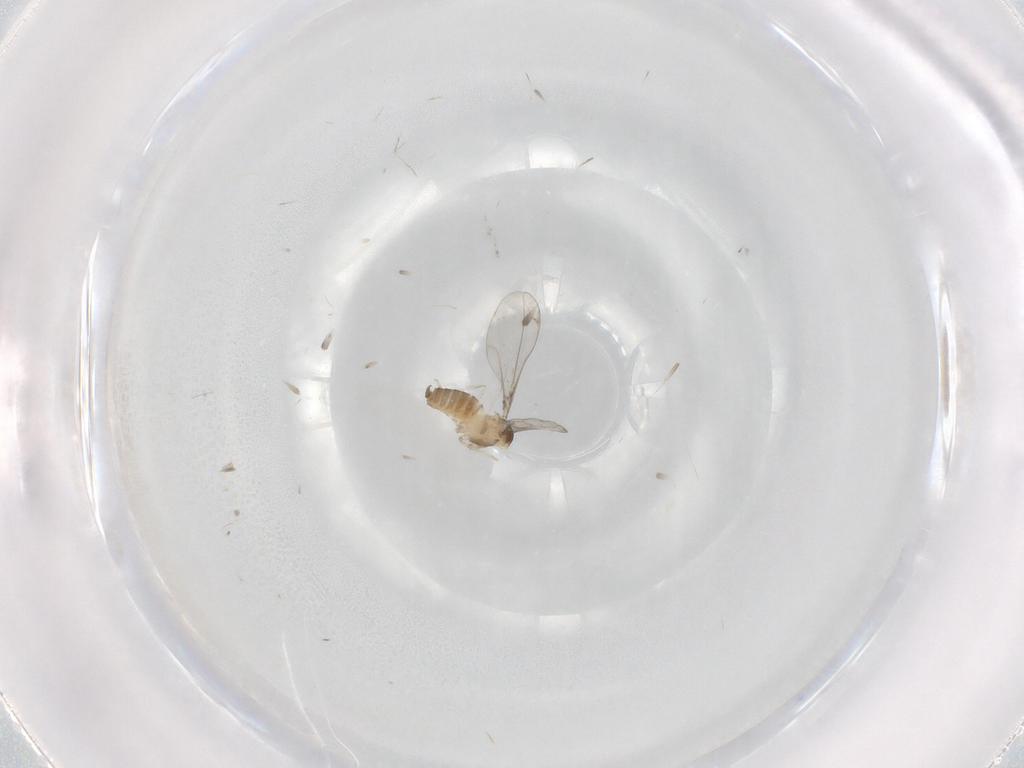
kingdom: Animalia
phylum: Arthropoda
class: Insecta
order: Diptera
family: Cecidomyiidae
